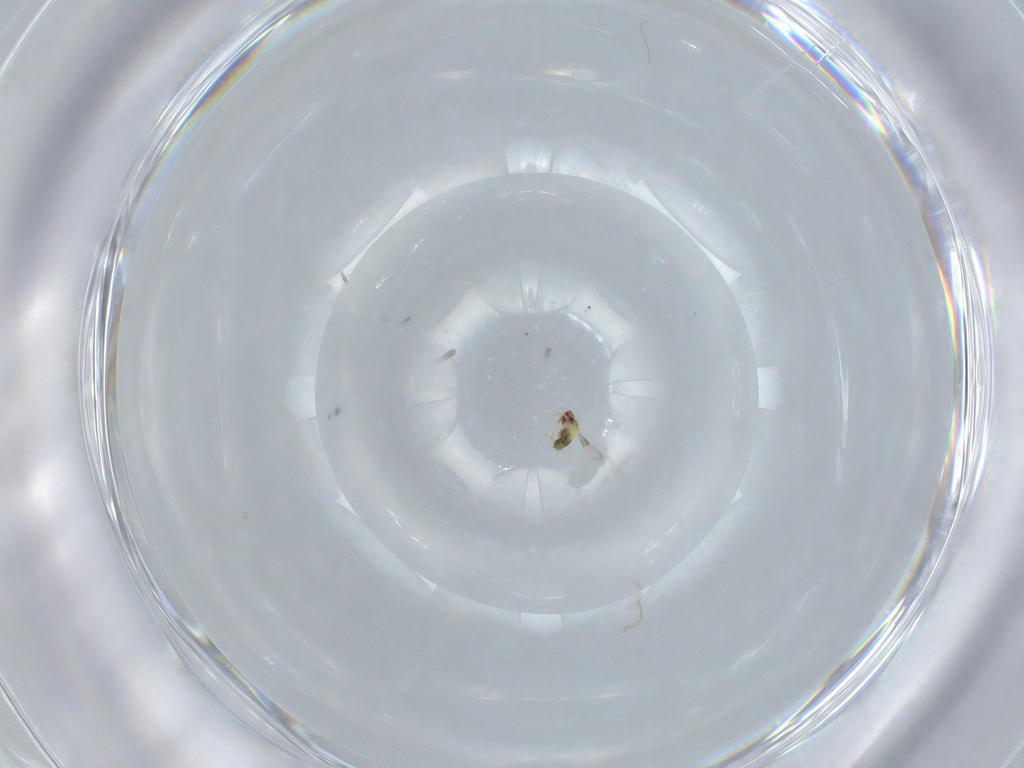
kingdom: Animalia
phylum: Arthropoda
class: Insecta
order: Hymenoptera
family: Trichogrammatidae
